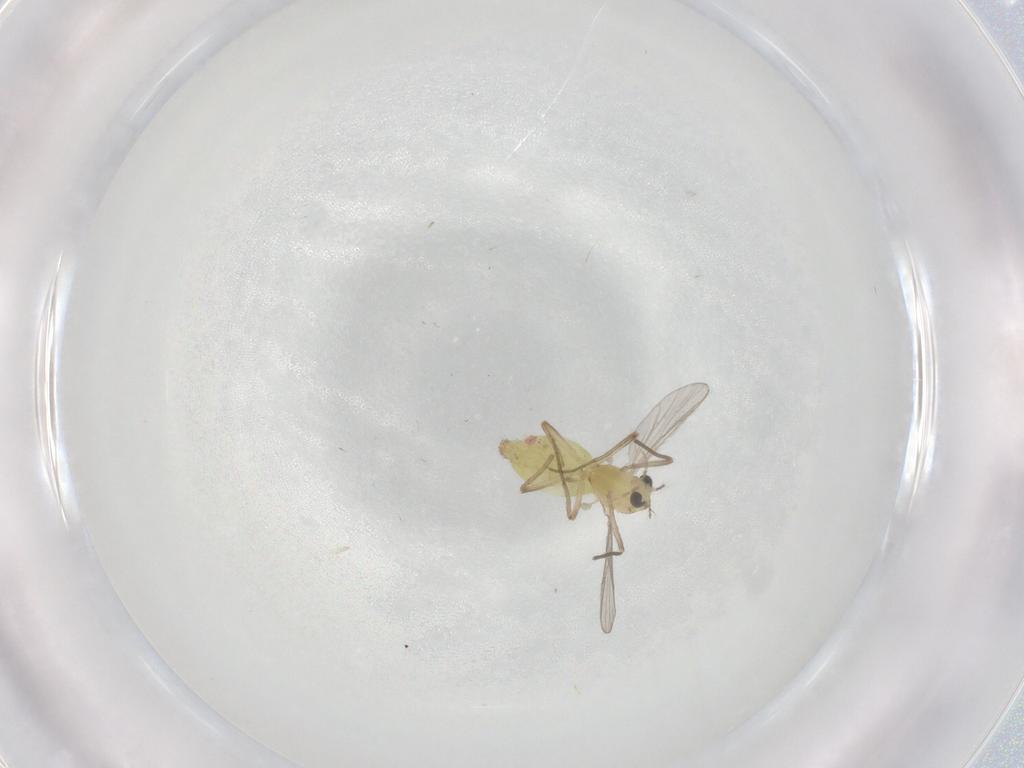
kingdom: Animalia
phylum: Arthropoda
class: Insecta
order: Diptera
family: Chironomidae
